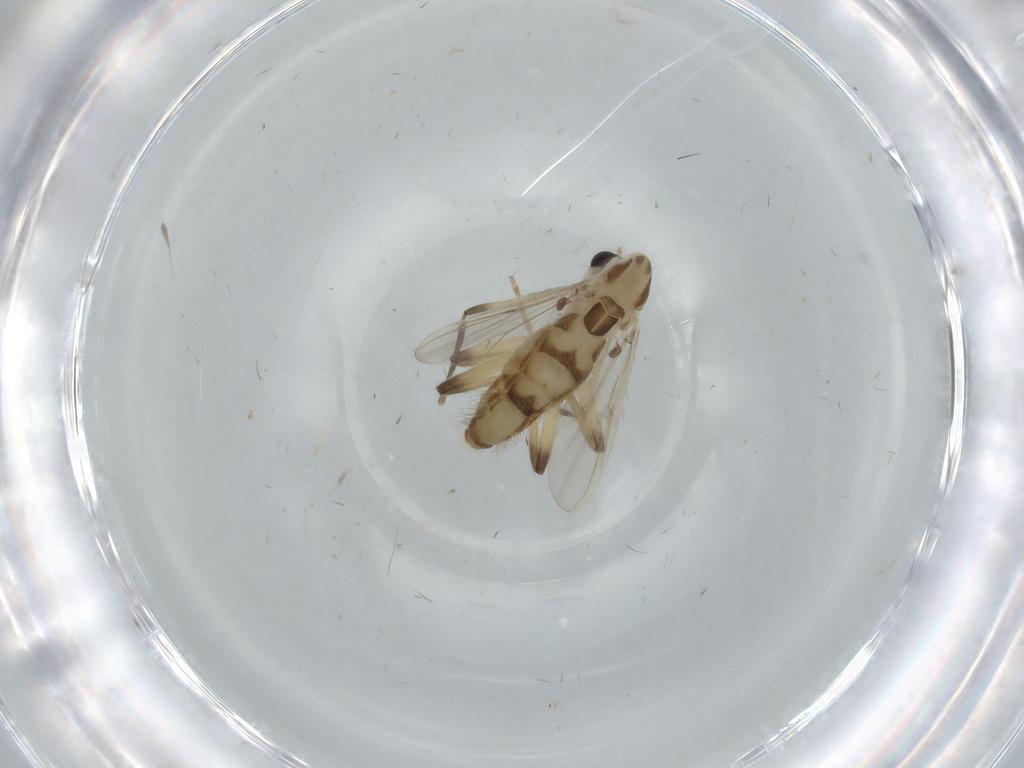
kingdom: Animalia
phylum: Arthropoda
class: Insecta
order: Diptera
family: Chironomidae
